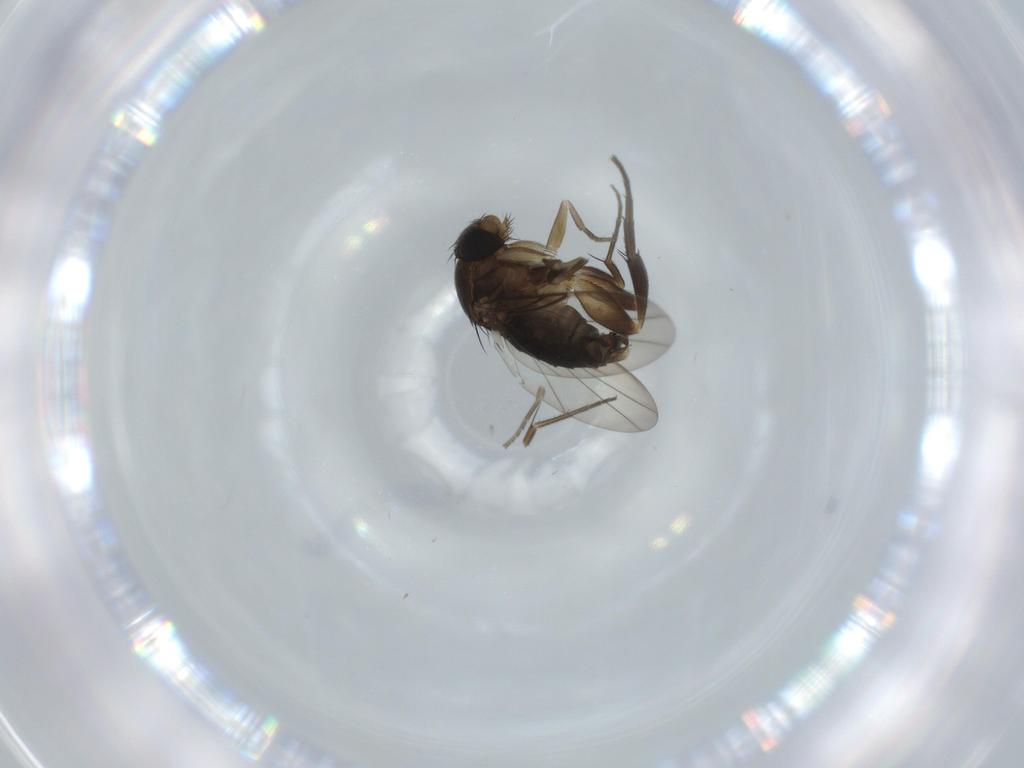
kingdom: Animalia
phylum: Arthropoda
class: Insecta
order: Diptera
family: Phoridae
